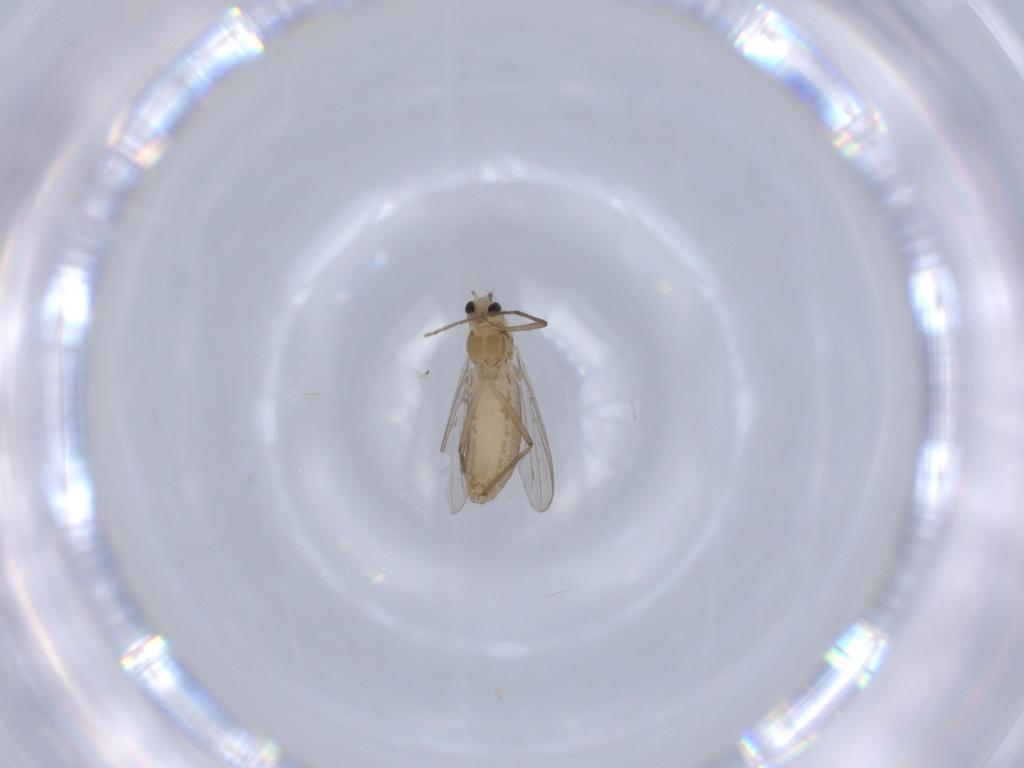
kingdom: Animalia
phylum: Arthropoda
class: Insecta
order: Diptera
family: Chironomidae
